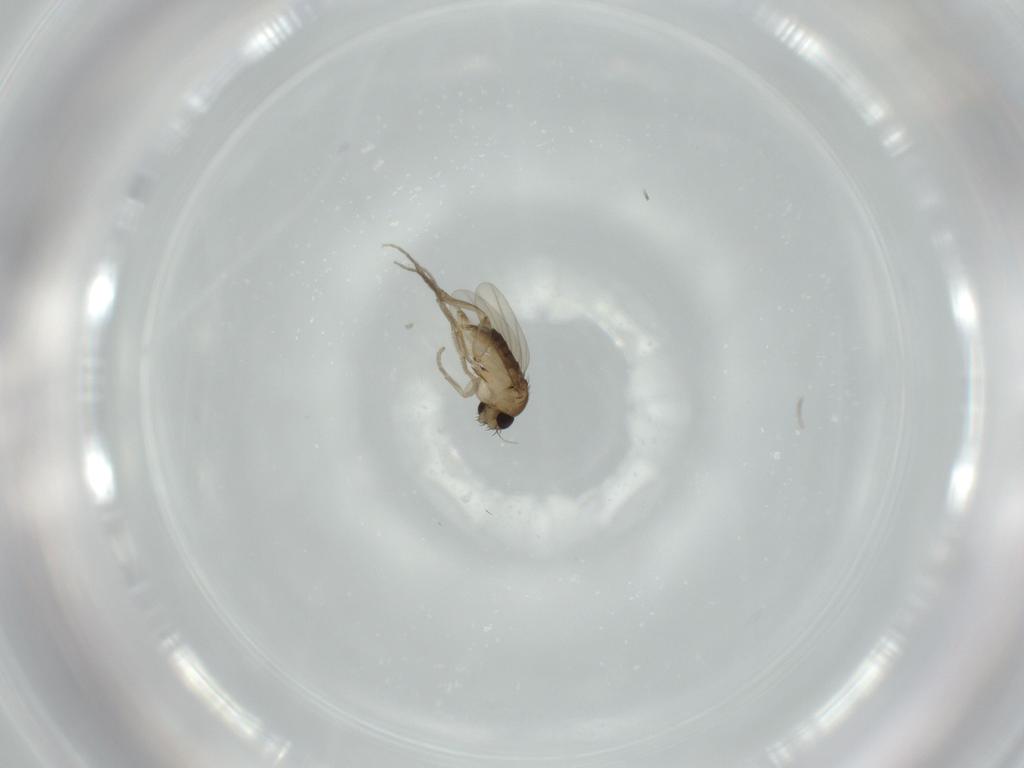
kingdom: Animalia
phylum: Arthropoda
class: Insecta
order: Diptera
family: Phoridae
